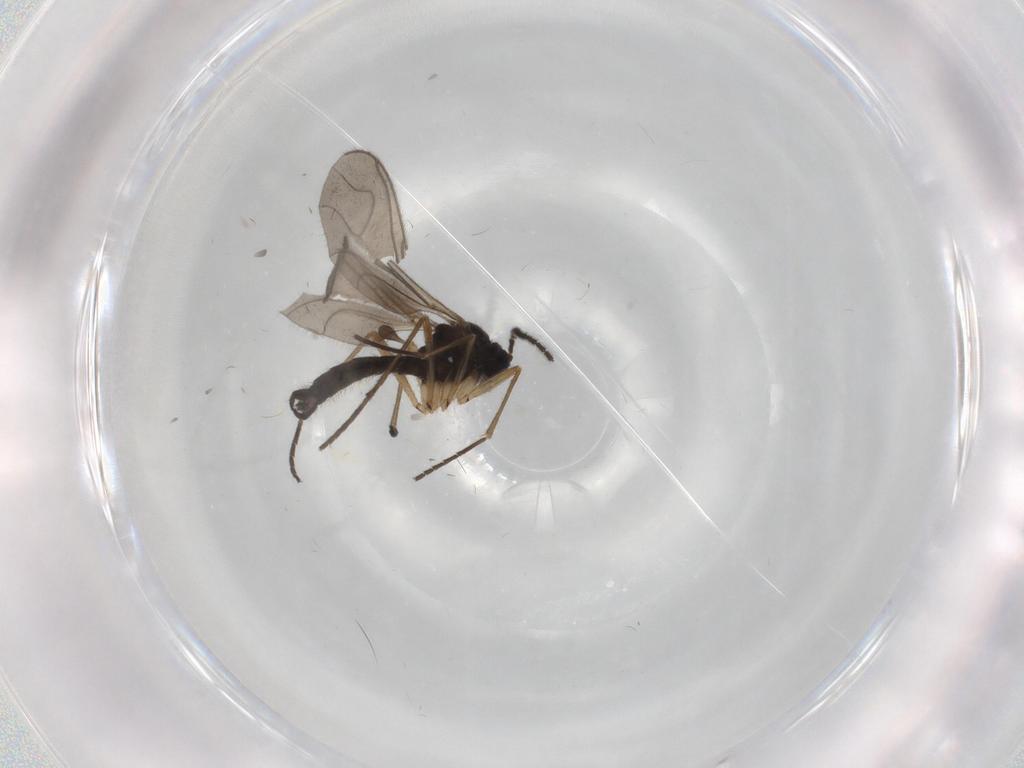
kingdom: Animalia
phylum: Arthropoda
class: Insecta
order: Diptera
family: Sciaridae
